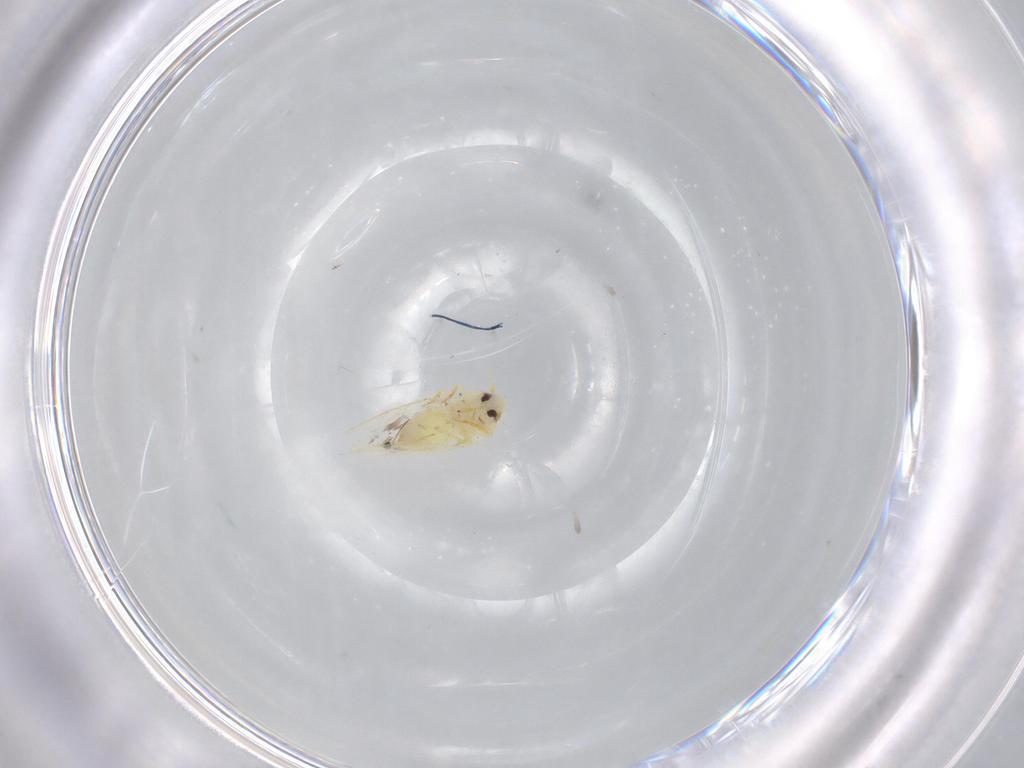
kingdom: Animalia
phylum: Arthropoda
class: Insecta
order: Hemiptera
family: Aleyrodidae
